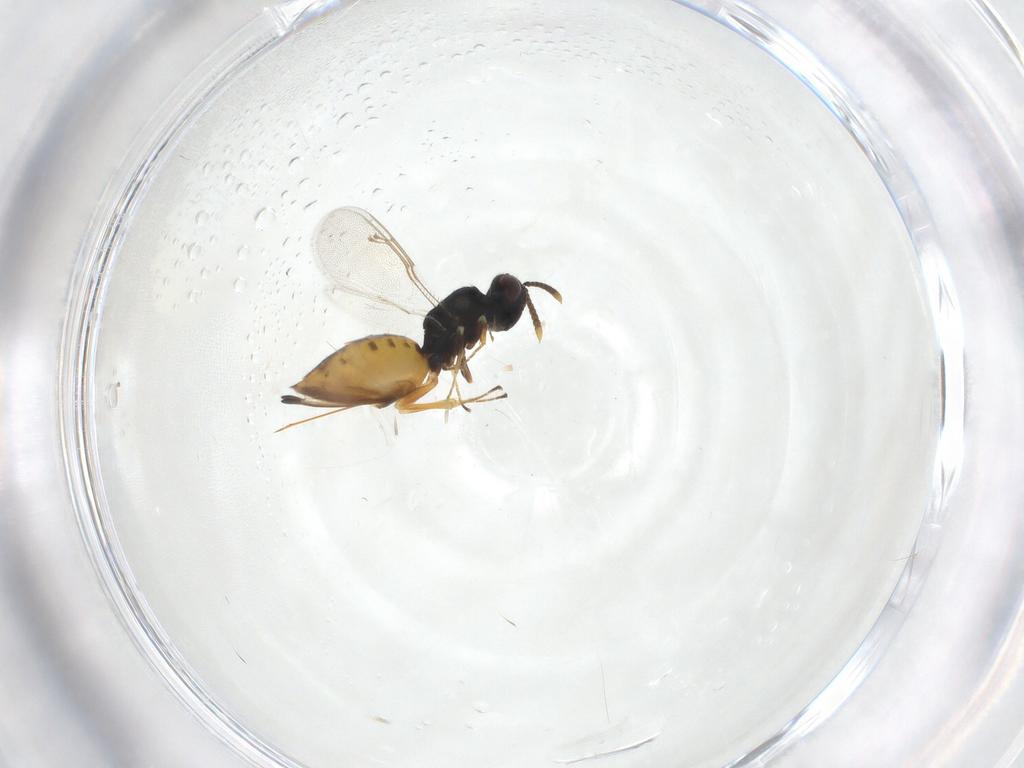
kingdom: Animalia
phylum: Arthropoda
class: Insecta
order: Hymenoptera
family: Pteromalidae
